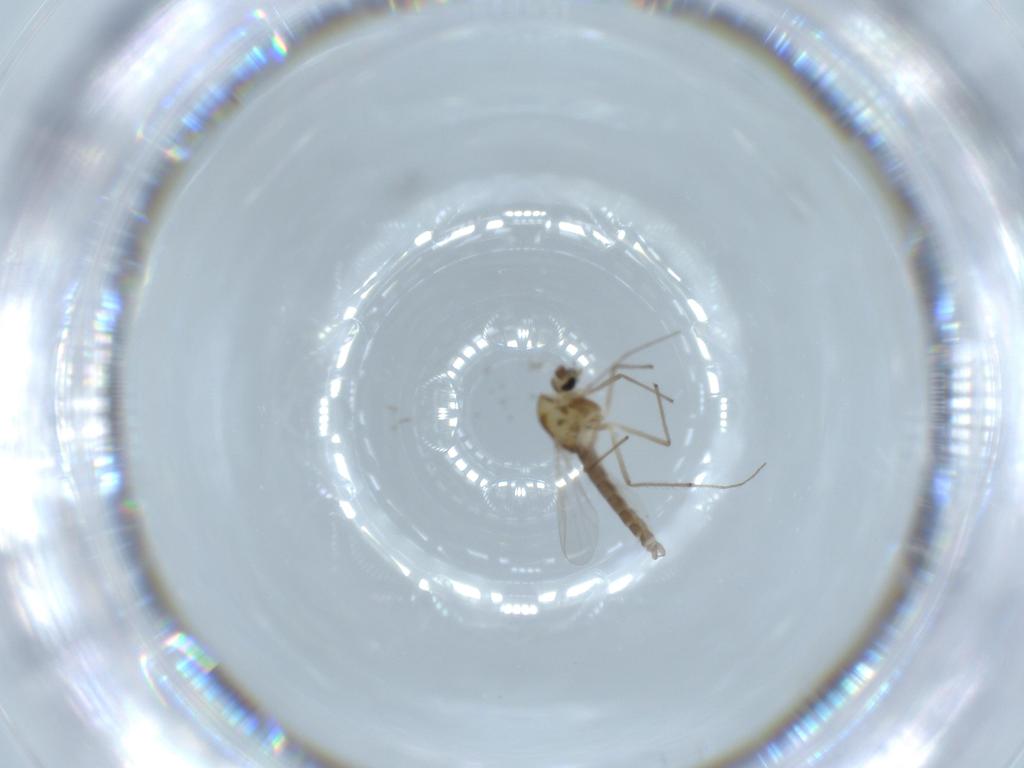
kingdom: Animalia
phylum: Arthropoda
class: Insecta
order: Diptera
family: Chironomidae
